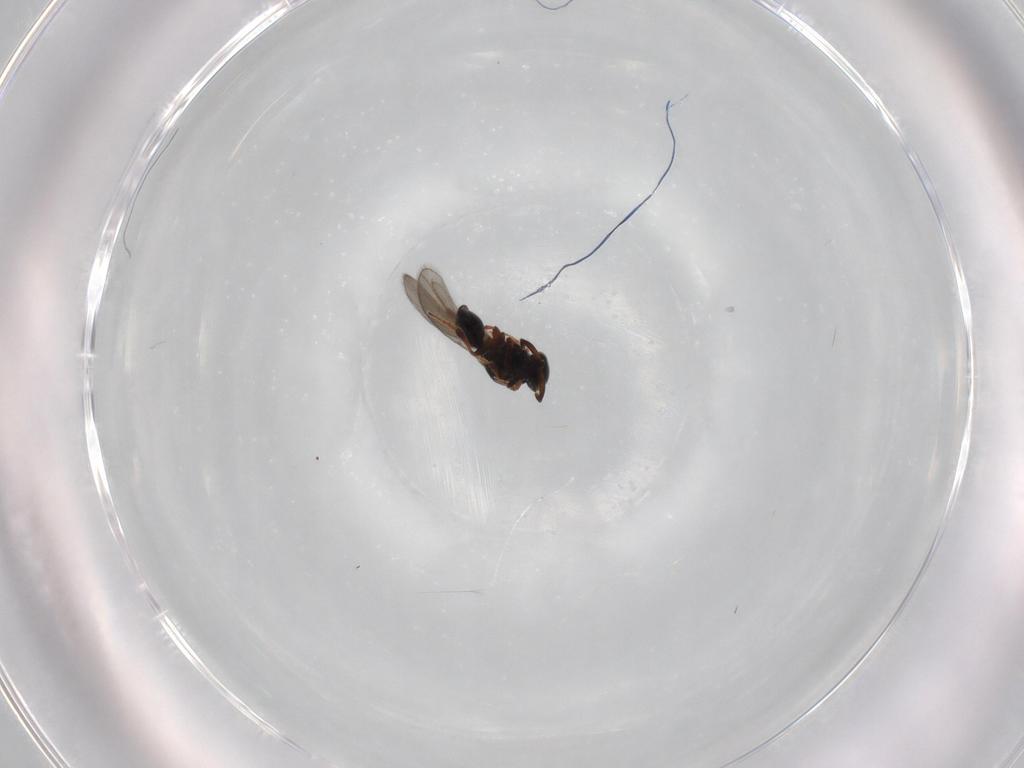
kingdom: Animalia
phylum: Arthropoda
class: Insecta
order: Hymenoptera
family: Platygastridae
